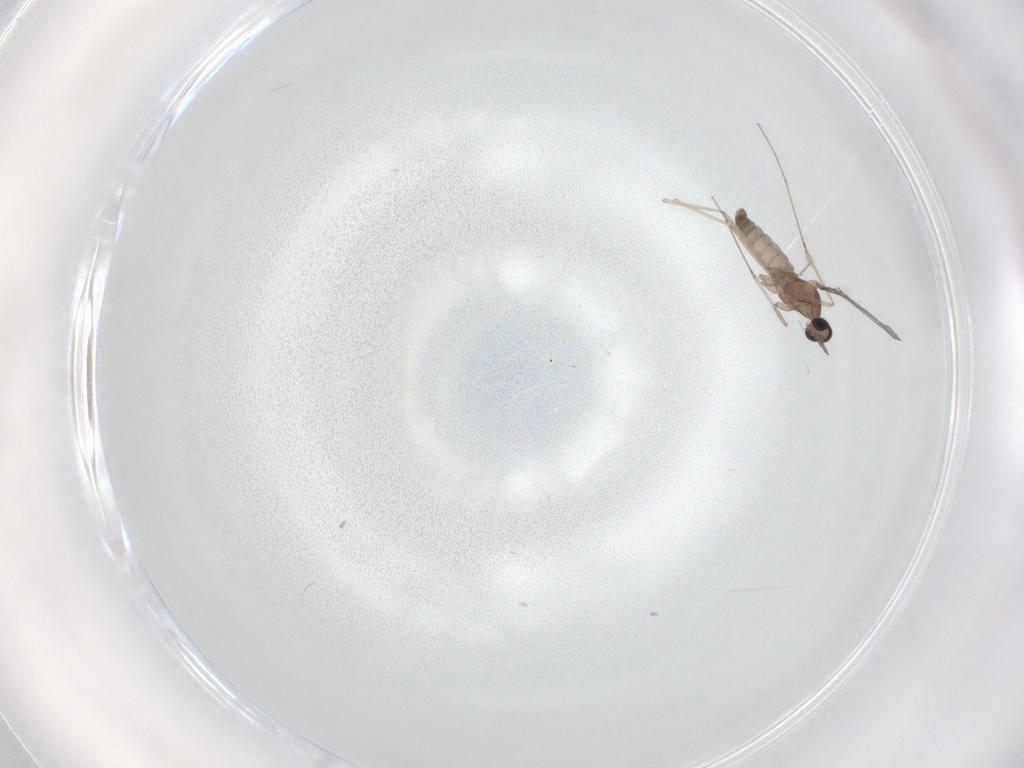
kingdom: Animalia
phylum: Arthropoda
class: Insecta
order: Diptera
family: Cecidomyiidae
